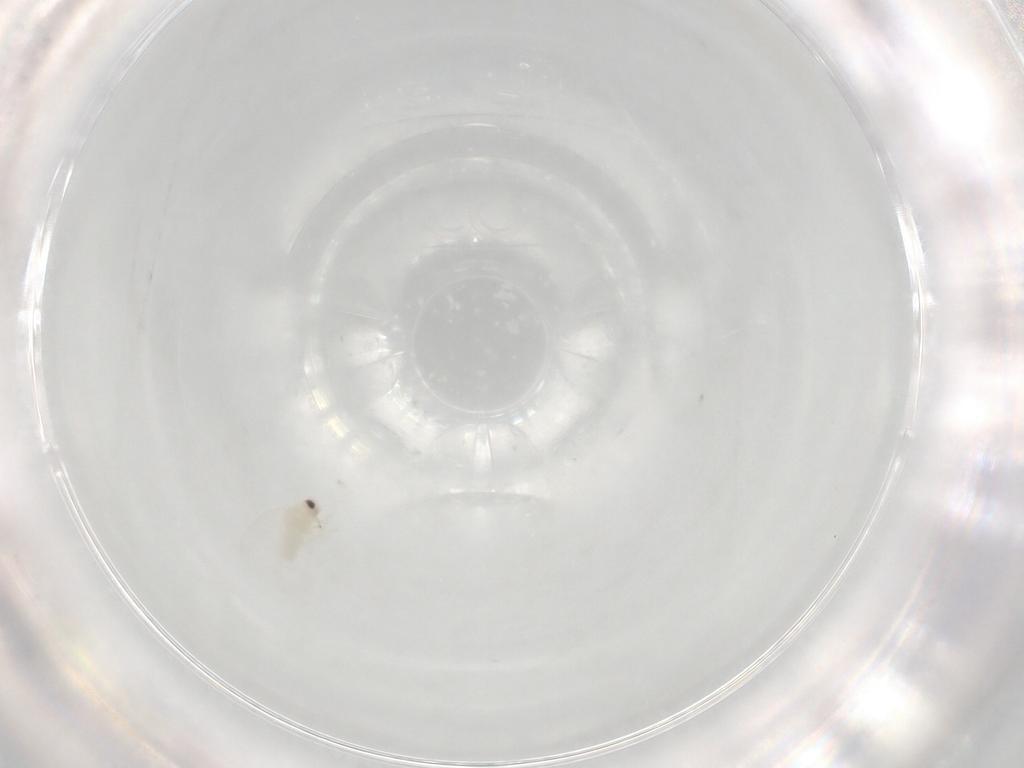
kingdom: Animalia
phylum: Arthropoda
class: Insecta
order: Hemiptera
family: Aleyrodidae
